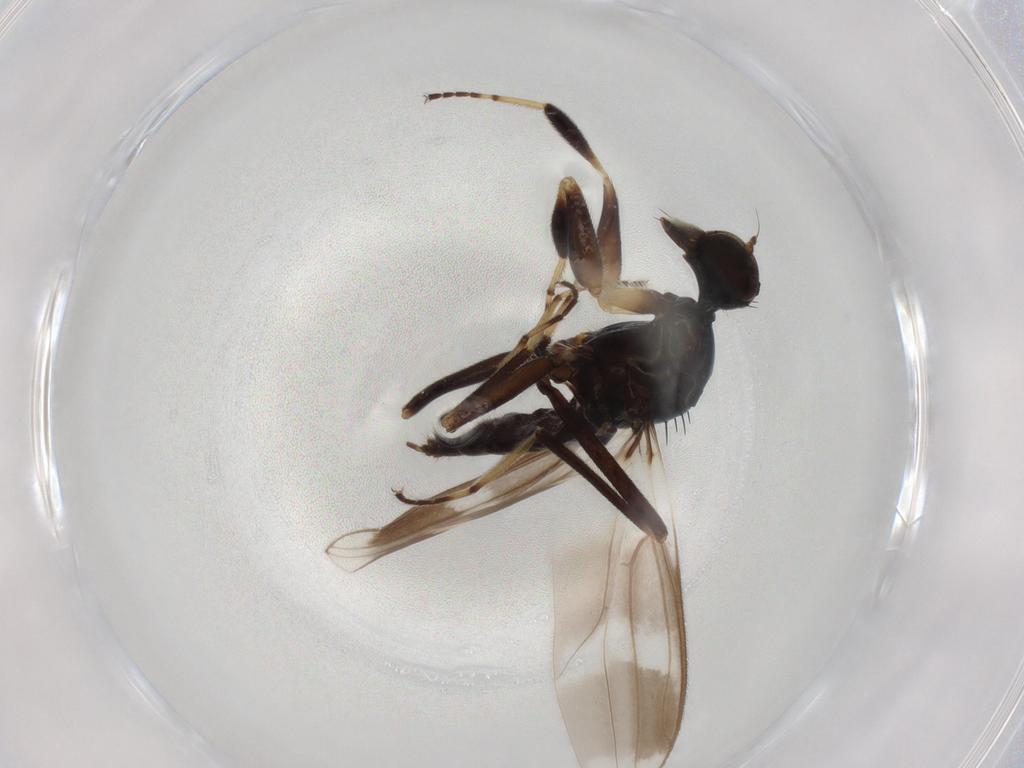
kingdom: Animalia
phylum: Arthropoda
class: Insecta
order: Diptera
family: Hybotidae
